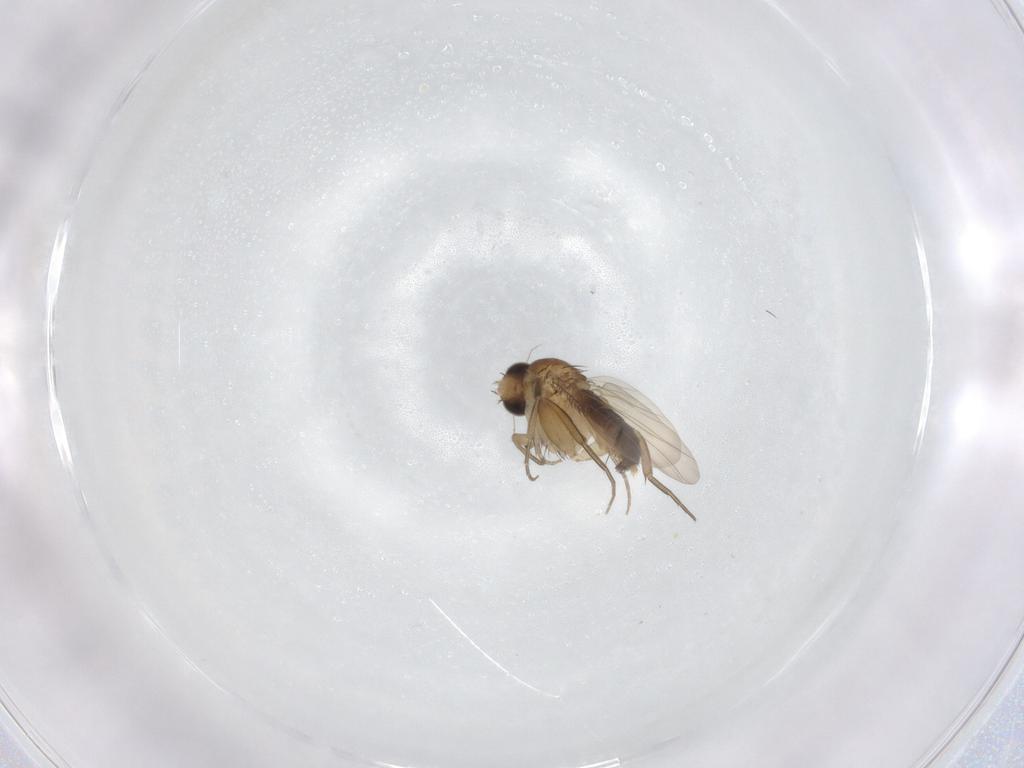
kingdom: Animalia
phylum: Arthropoda
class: Insecta
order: Diptera
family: Phoridae
